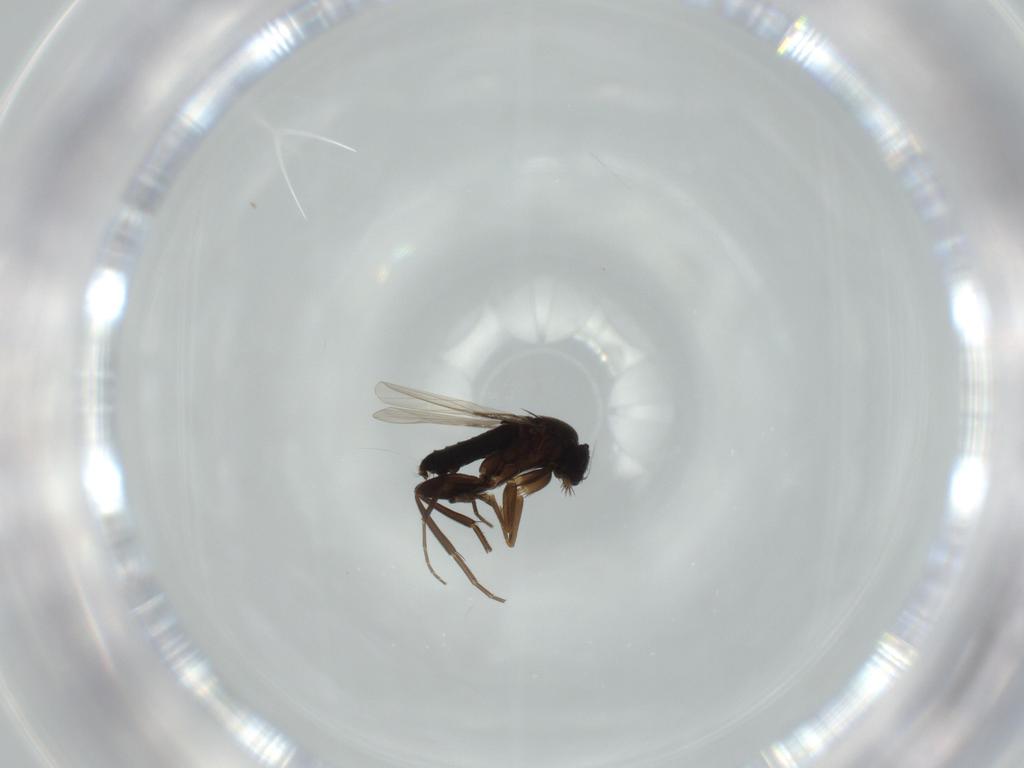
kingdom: Animalia
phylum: Arthropoda
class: Insecta
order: Diptera
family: Phoridae
